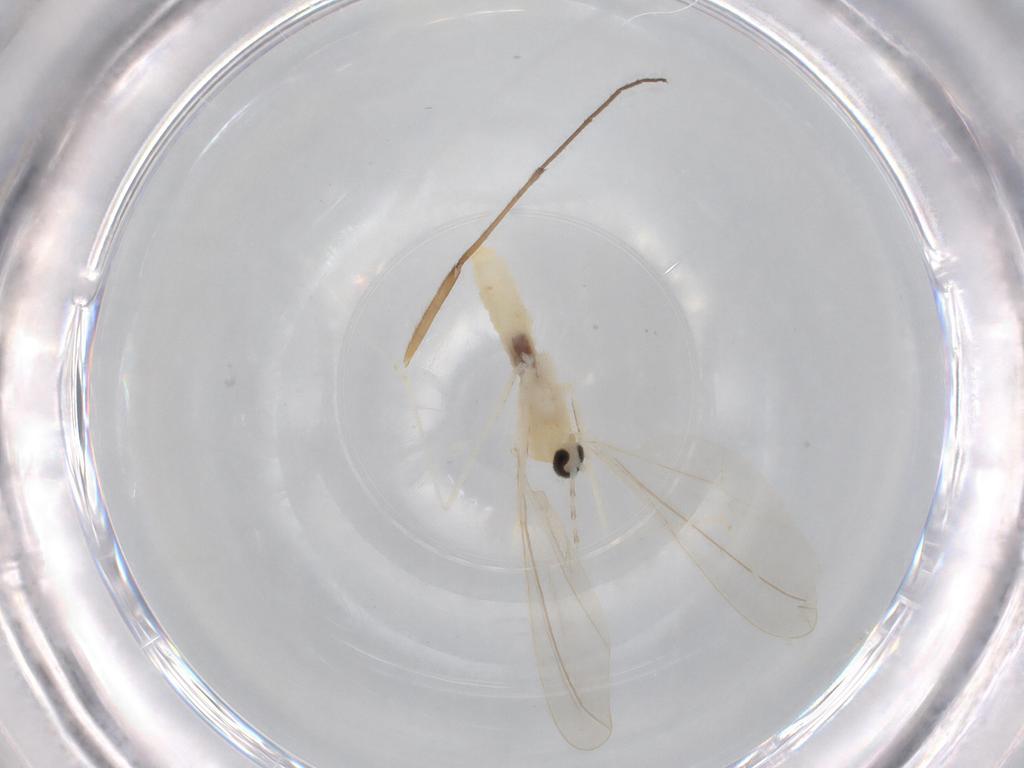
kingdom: Animalia
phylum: Arthropoda
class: Insecta
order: Diptera
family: Cecidomyiidae
